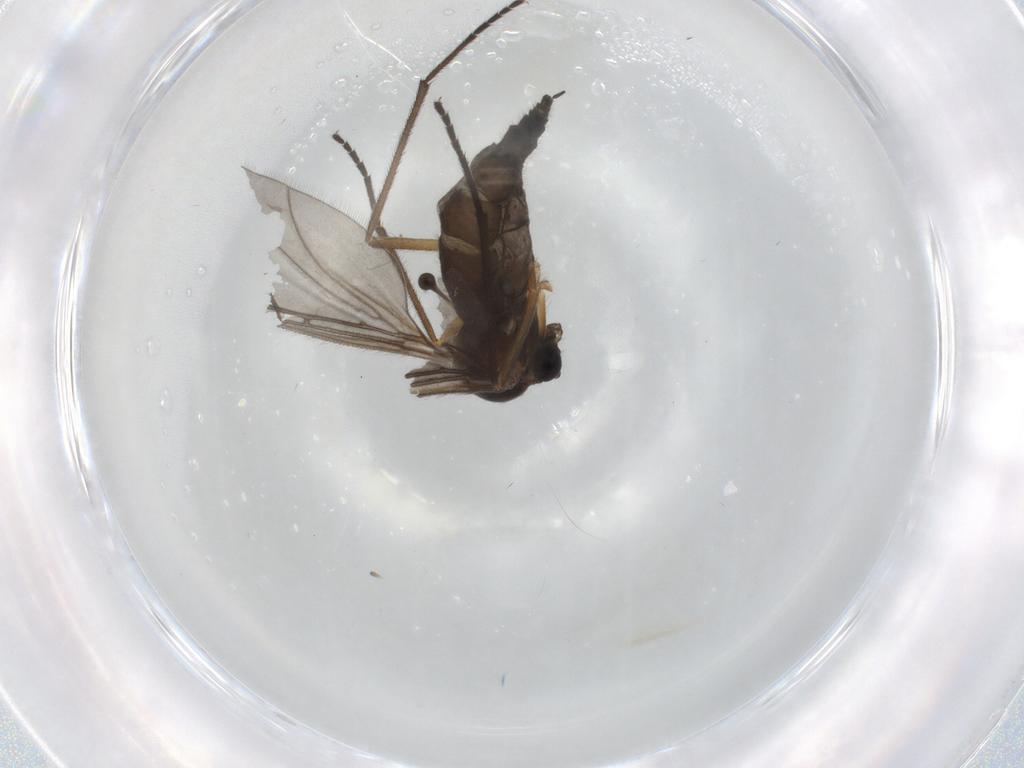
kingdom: Animalia
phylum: Arthropoda
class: Insecta
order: Diptera
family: Sciaridae
